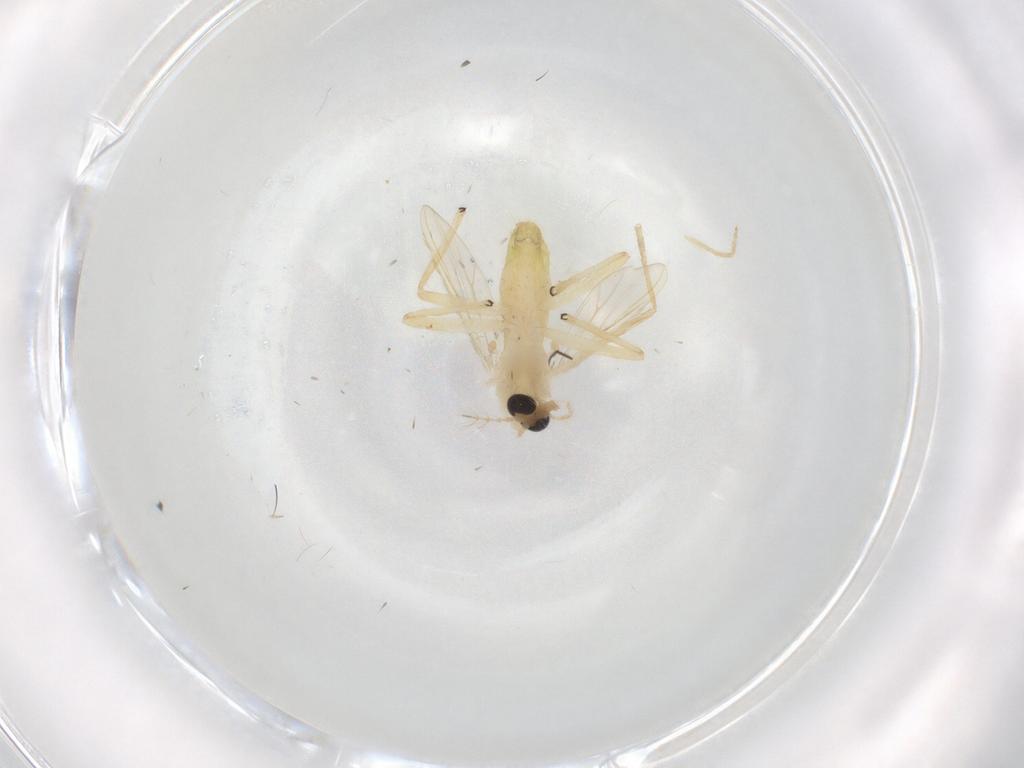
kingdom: Animalia
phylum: Arthropoda
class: Insecta
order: Diptera
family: Chironomidae
